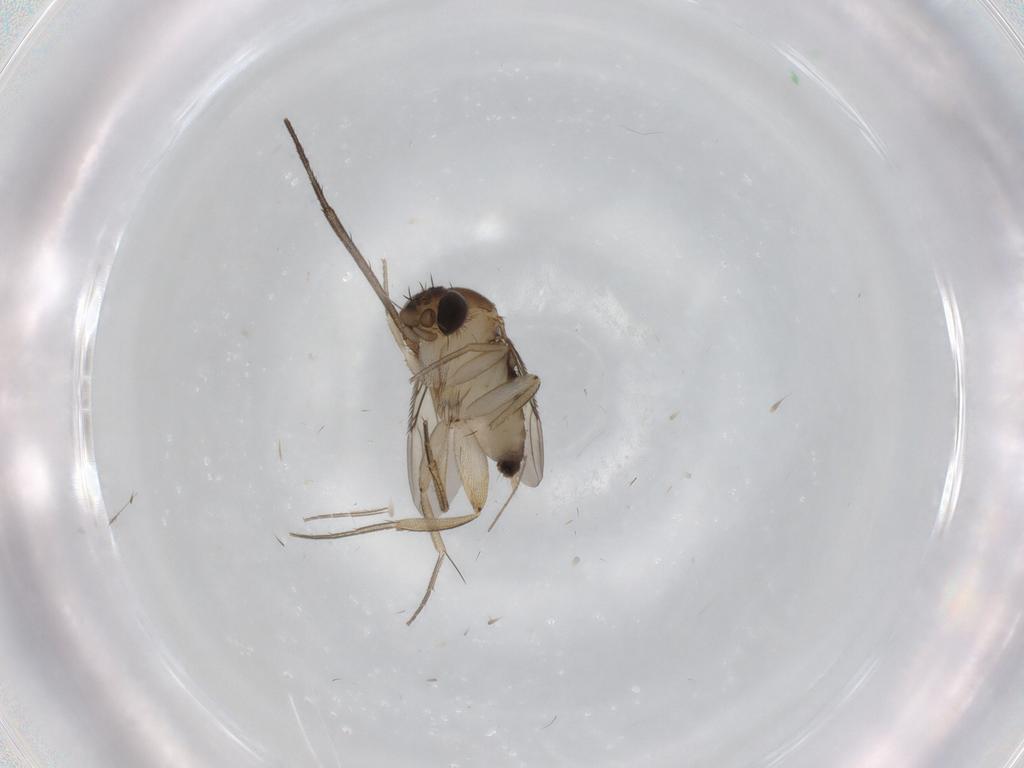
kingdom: Animalia
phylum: Arthropoda
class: Insecta
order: Diptera
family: Phoridae
